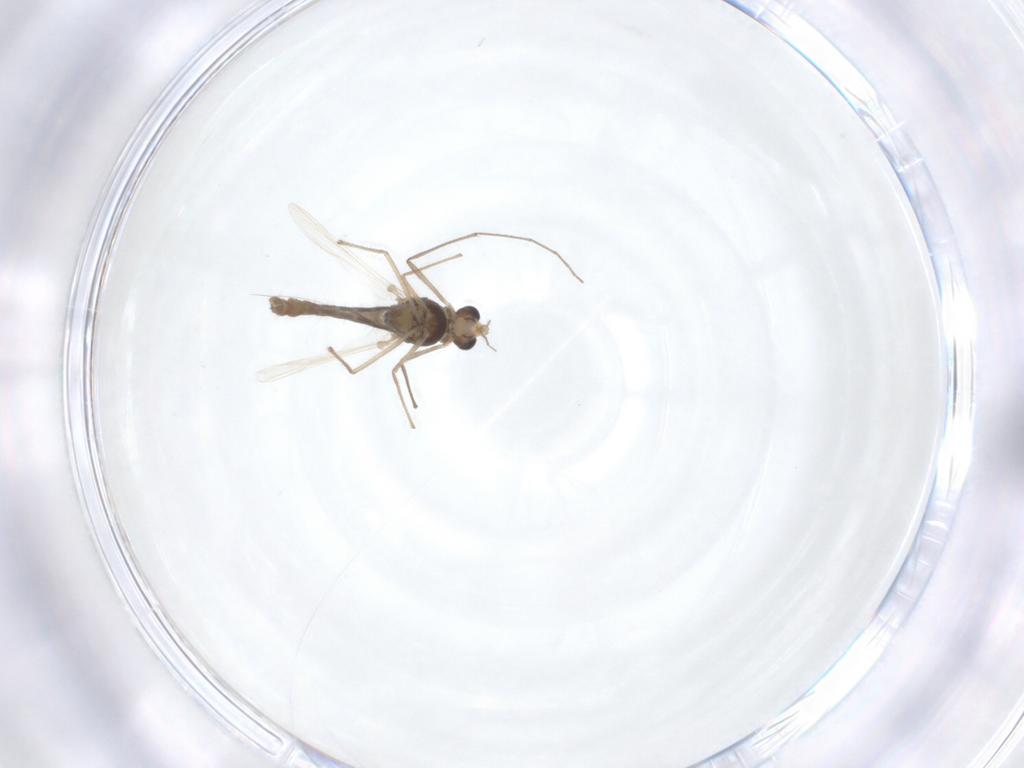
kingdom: Animalia
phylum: Arthropoda
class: Insecta
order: Diptera
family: Chironomidae
